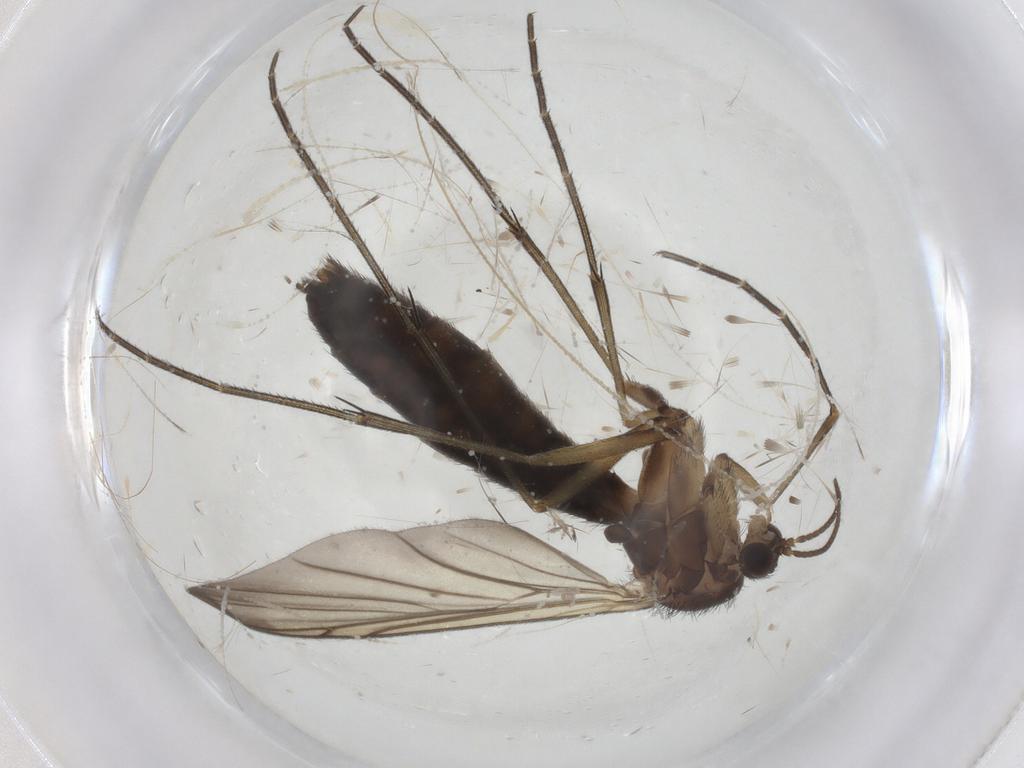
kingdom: Animalia
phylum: Arthropoda
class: Insecta
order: Diptera
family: Keroplatidae
